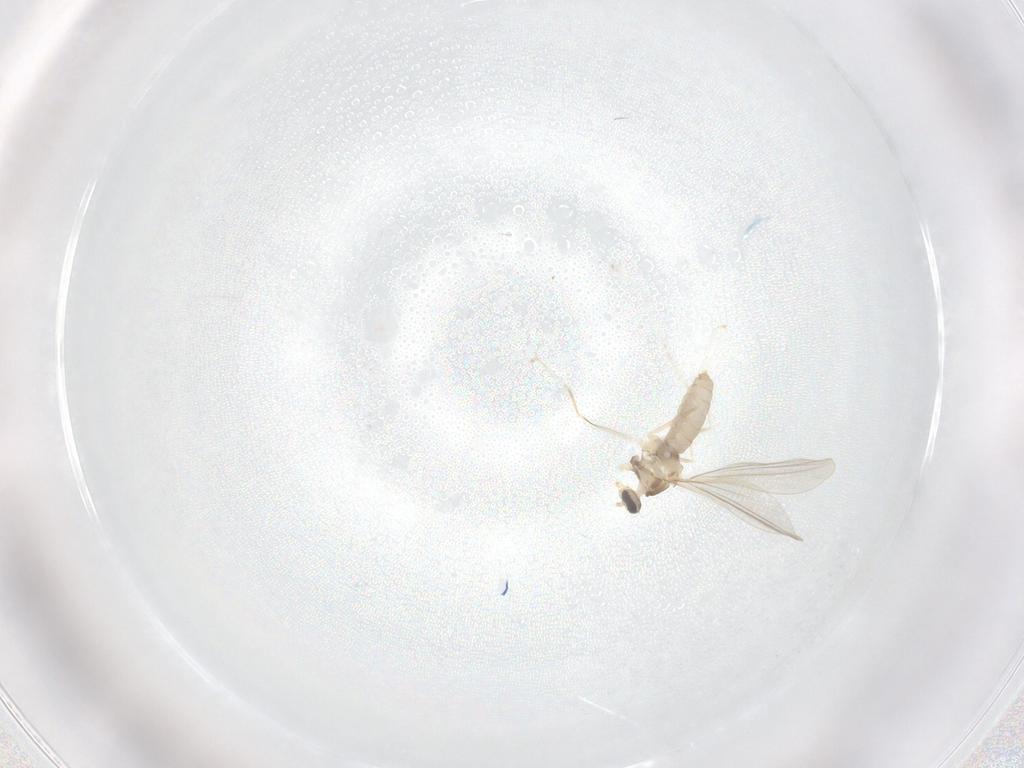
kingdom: Animalia
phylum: Arthropoda
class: Insecta
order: Diptera
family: Cecidomyiidae
